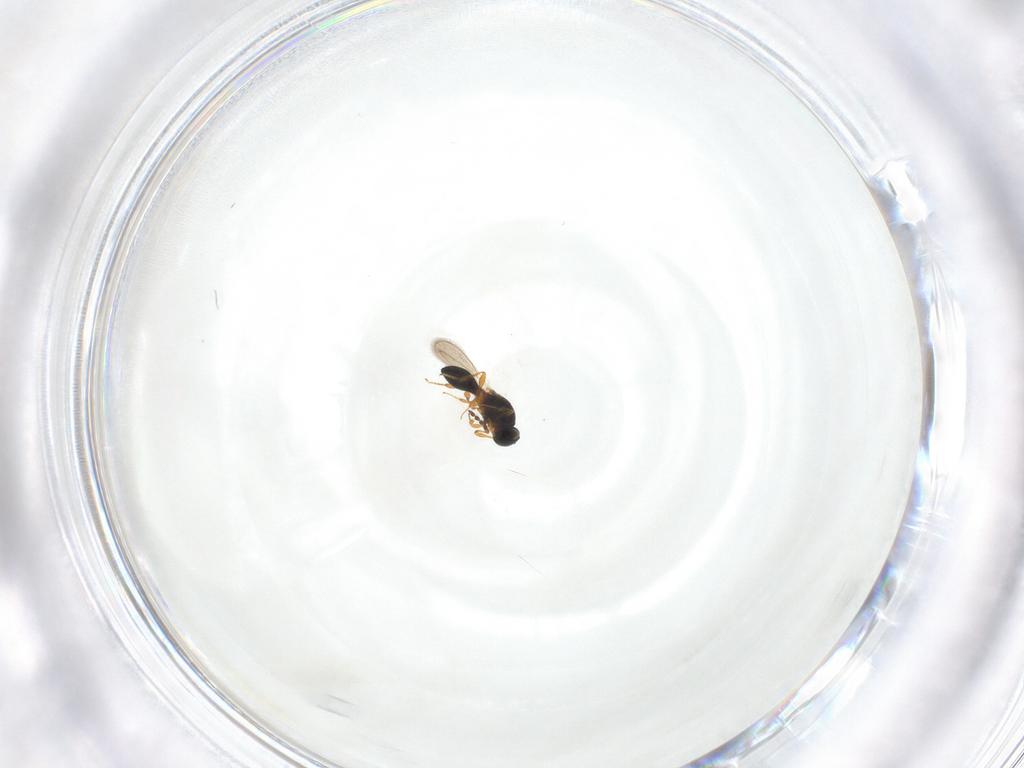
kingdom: Animalia
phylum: Arthropoda
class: Insecta
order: Hymenoptera
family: Platygastridae
